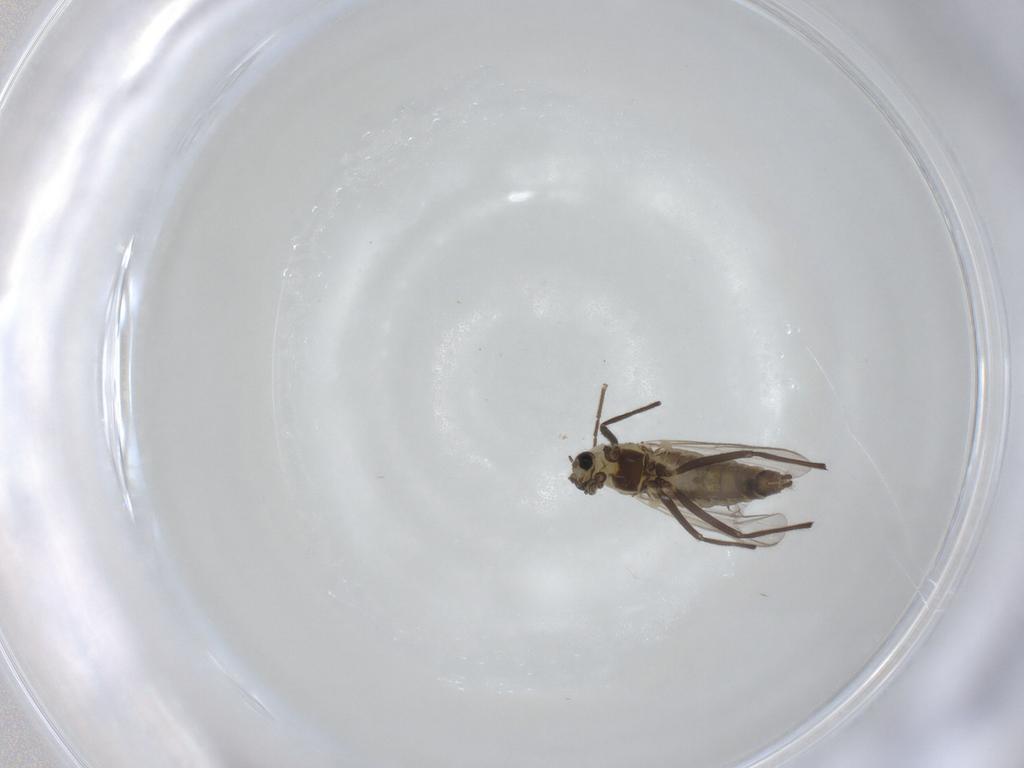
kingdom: Animalia
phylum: Arthropoda
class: Insecta
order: Diptera
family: Chironomidae
